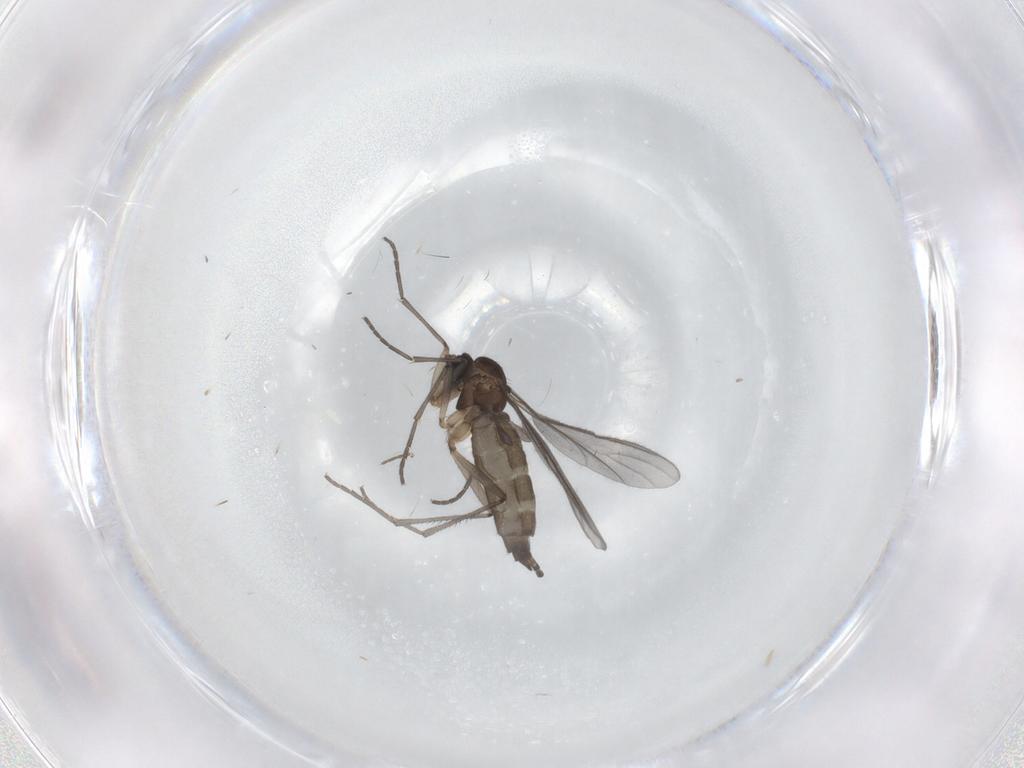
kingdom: Animalia
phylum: Arthropoda
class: Insecta
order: Diptera
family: Sciaridae
